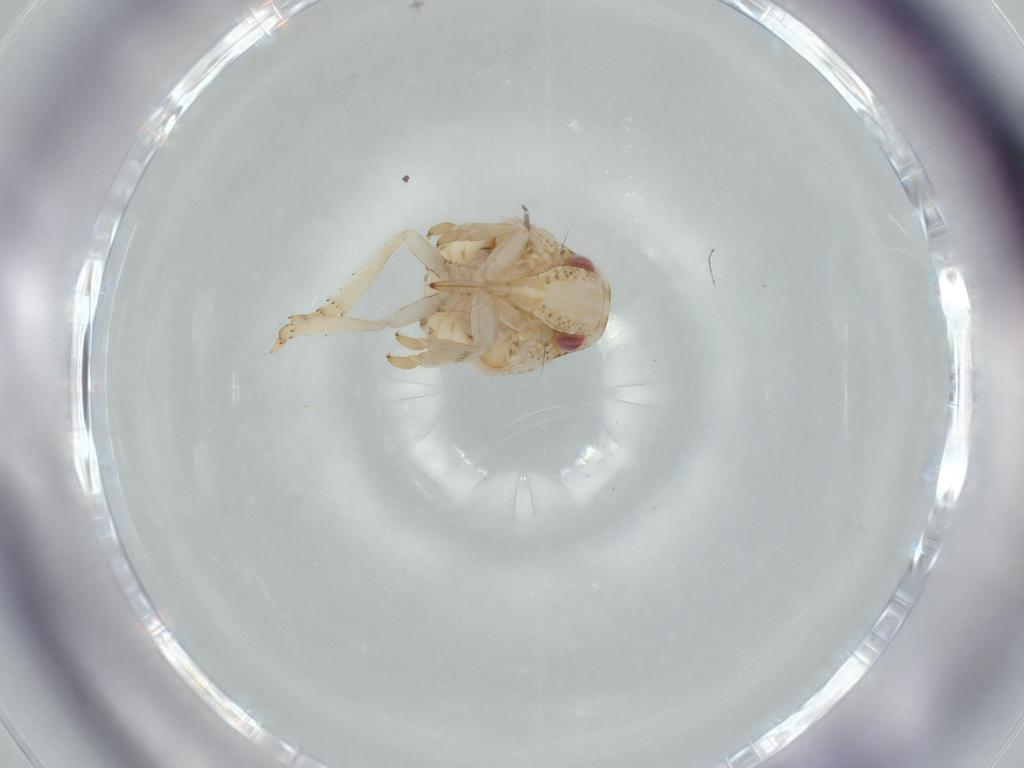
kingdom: Animalia
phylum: Arthropoda
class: Insecta
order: Hemiptera
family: Acanaloniidae
